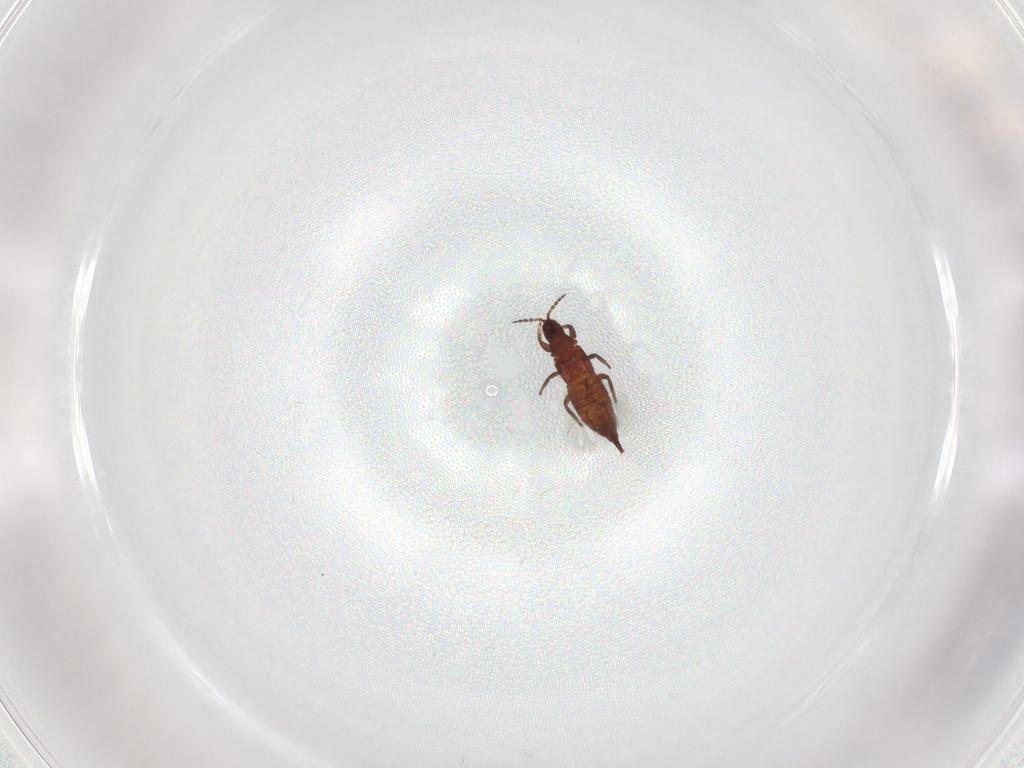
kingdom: Animalia
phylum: Arthropoda
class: Insecta
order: Thysanoptera
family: Phlaeothripidae
